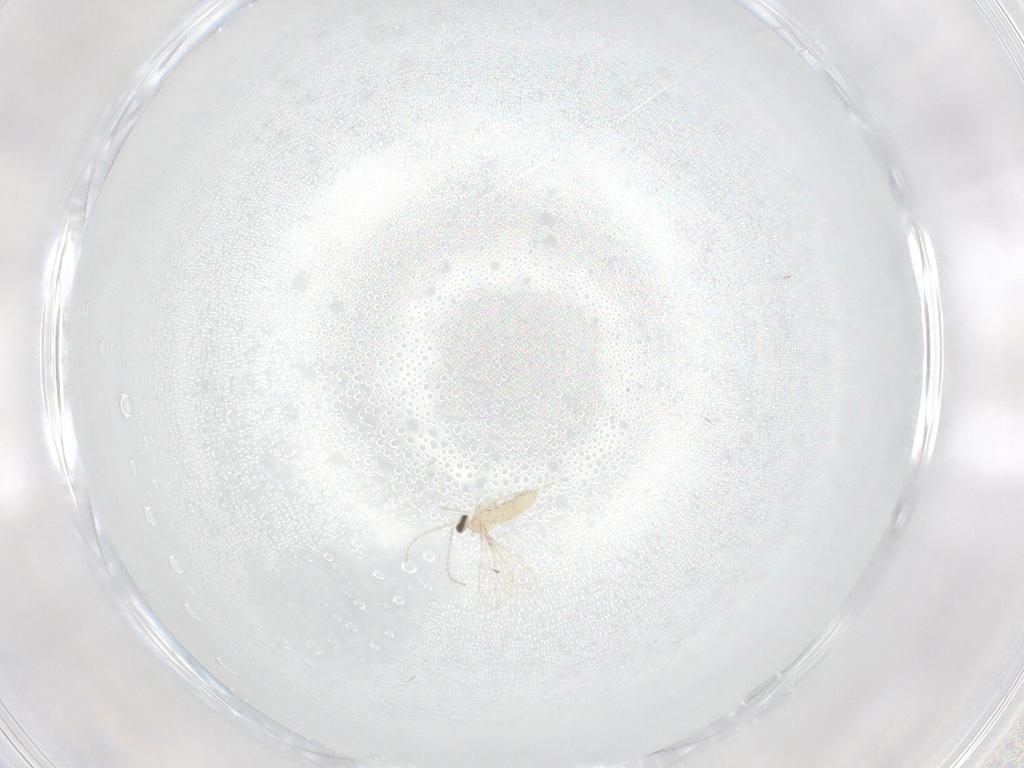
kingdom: Animalia
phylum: Arthropoda
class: Insecta
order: Diptera
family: Cecidomyiidae
